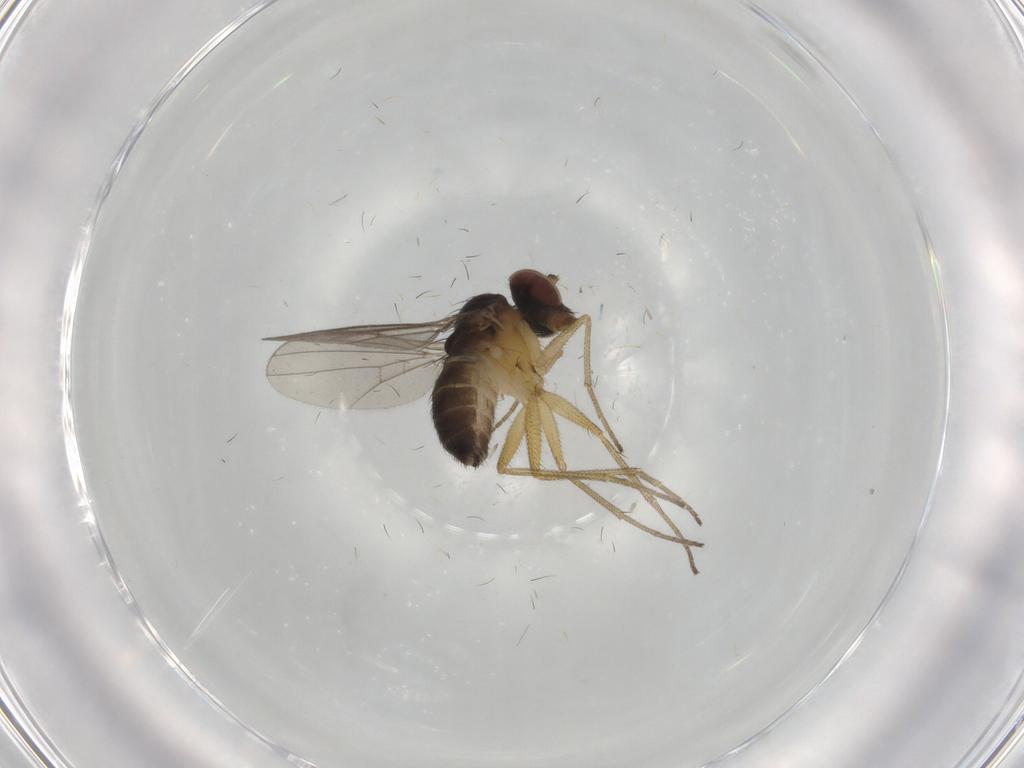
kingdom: Animalia
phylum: Arthropoda
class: Insecta
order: Diptera
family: Dolichopodidae
